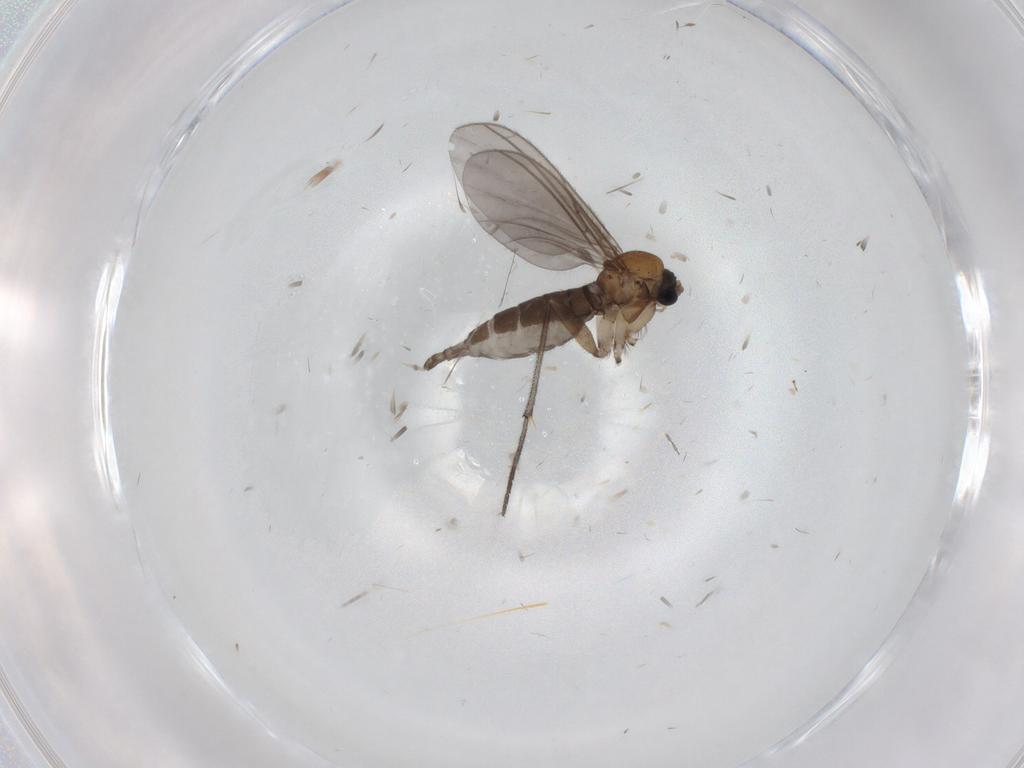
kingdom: Animalia
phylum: Arthropoda
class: Insecta
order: Diptera
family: Sciaridae
